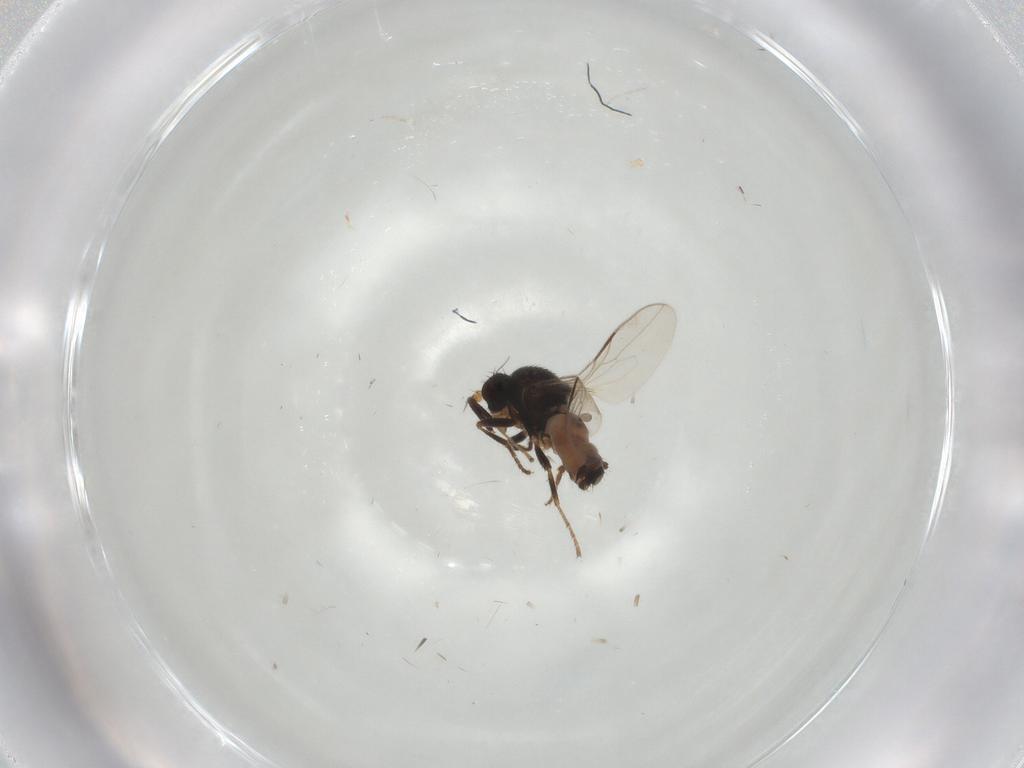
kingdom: Animalia
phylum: Arthropoda
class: Insecta
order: Diptera
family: Sphaeroceridae
